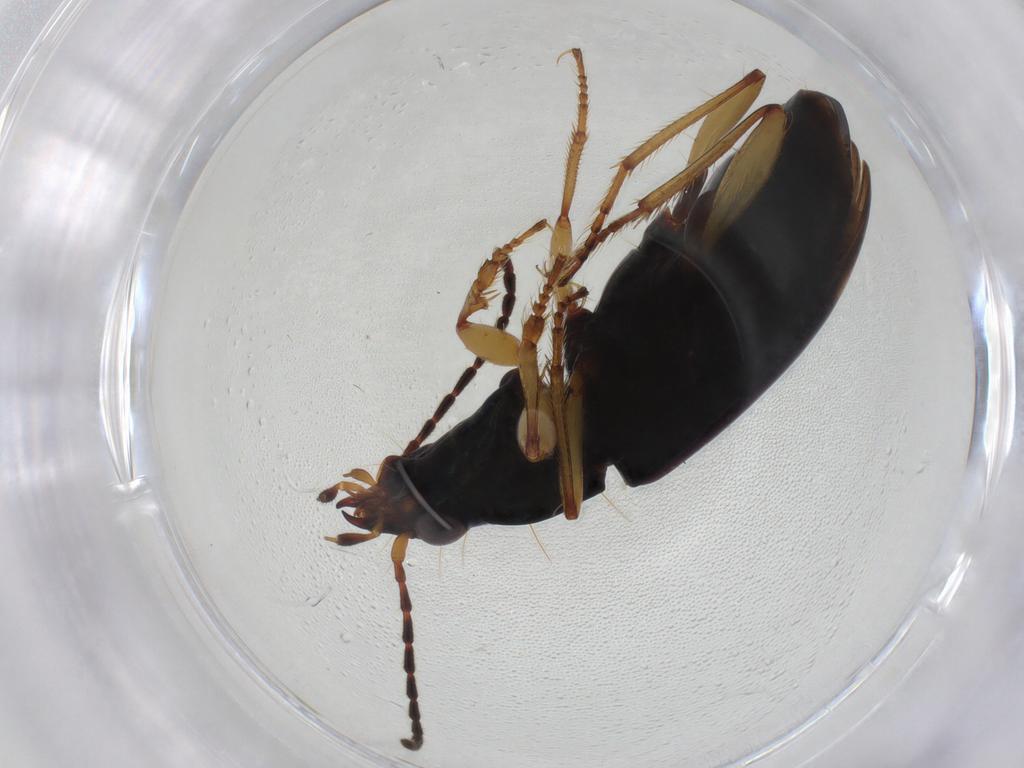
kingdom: Animalia
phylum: Arthropoda
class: Insecta
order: Coleoptera
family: Carabidae
